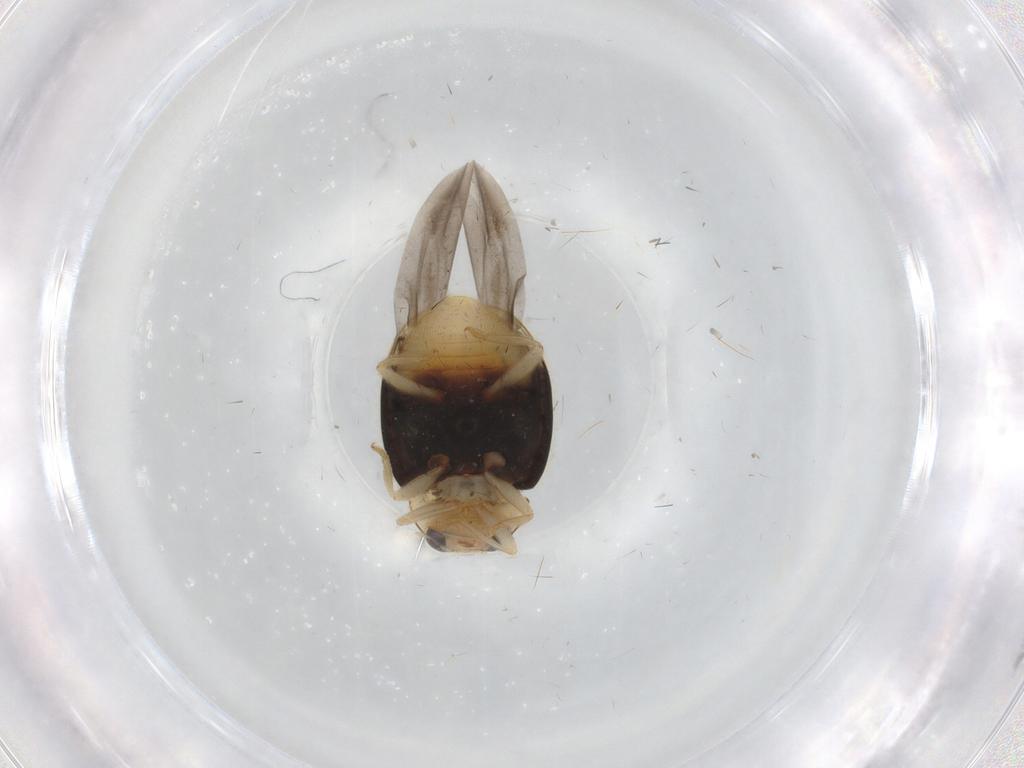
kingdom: Animalia
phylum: Arthropoda
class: Insecta
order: Coleoptera
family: Coccinellidae
